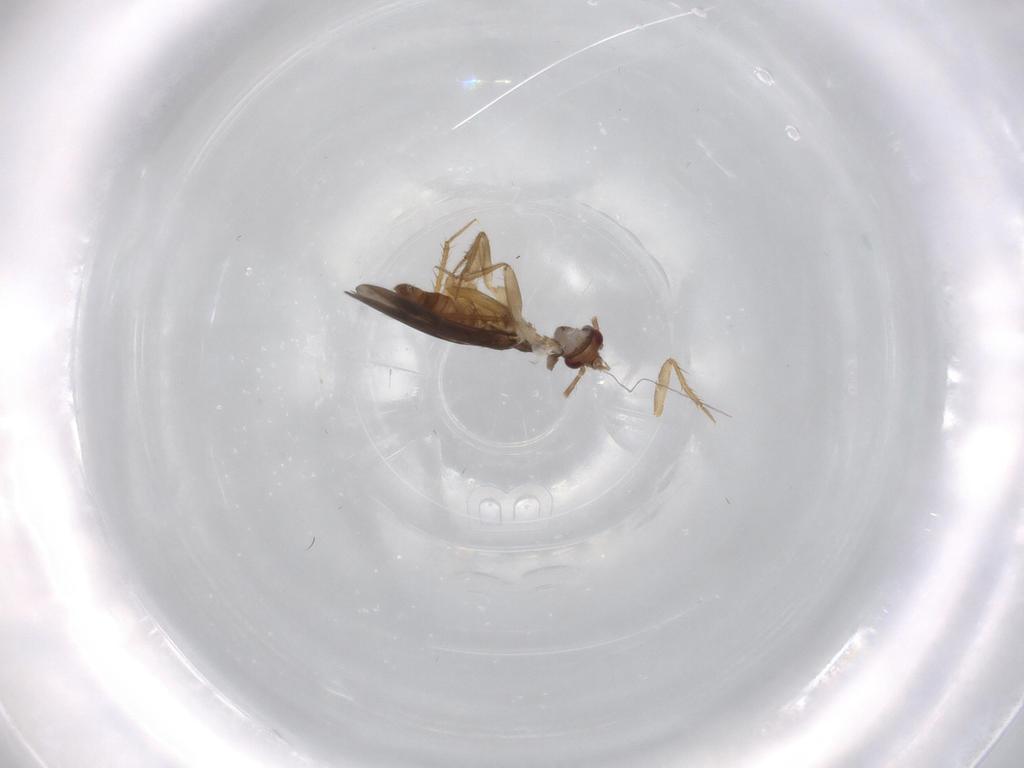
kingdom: Animalia
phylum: Arthropoda
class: Insecta
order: Hemiptera
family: Ceratocombidae
